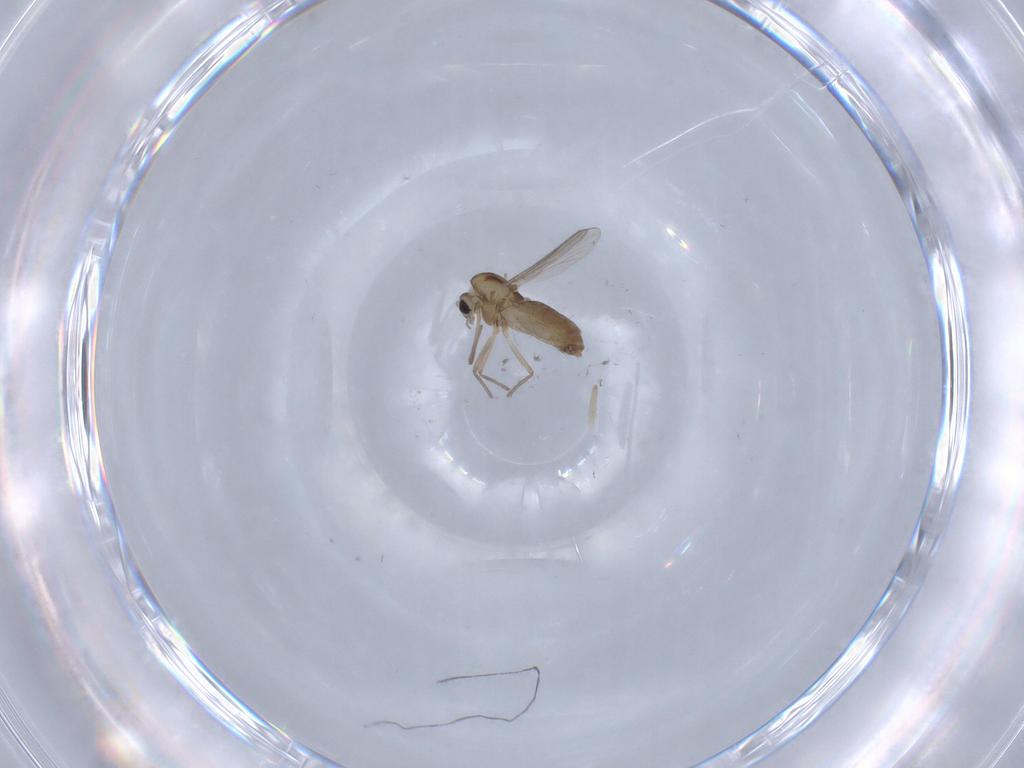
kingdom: Animalia
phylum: Arthropoda
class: Insecta
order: Diptera
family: Chironomidae
